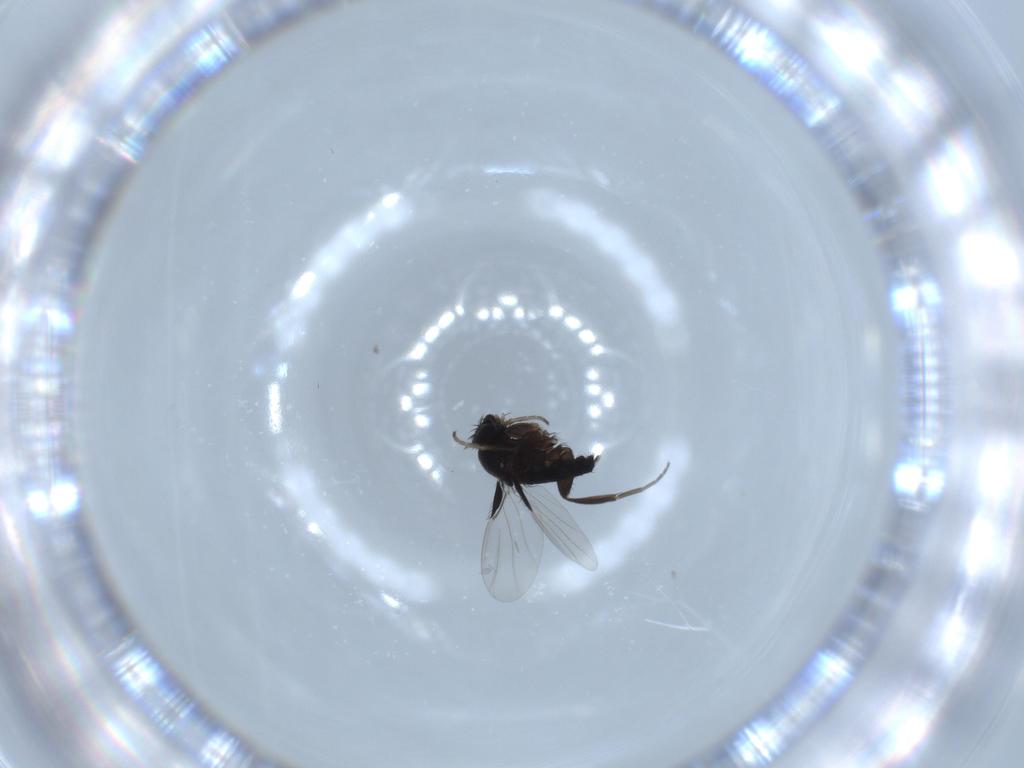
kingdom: Animalia
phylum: Arthropoda
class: Insecta
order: Diptera
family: Phoridae
